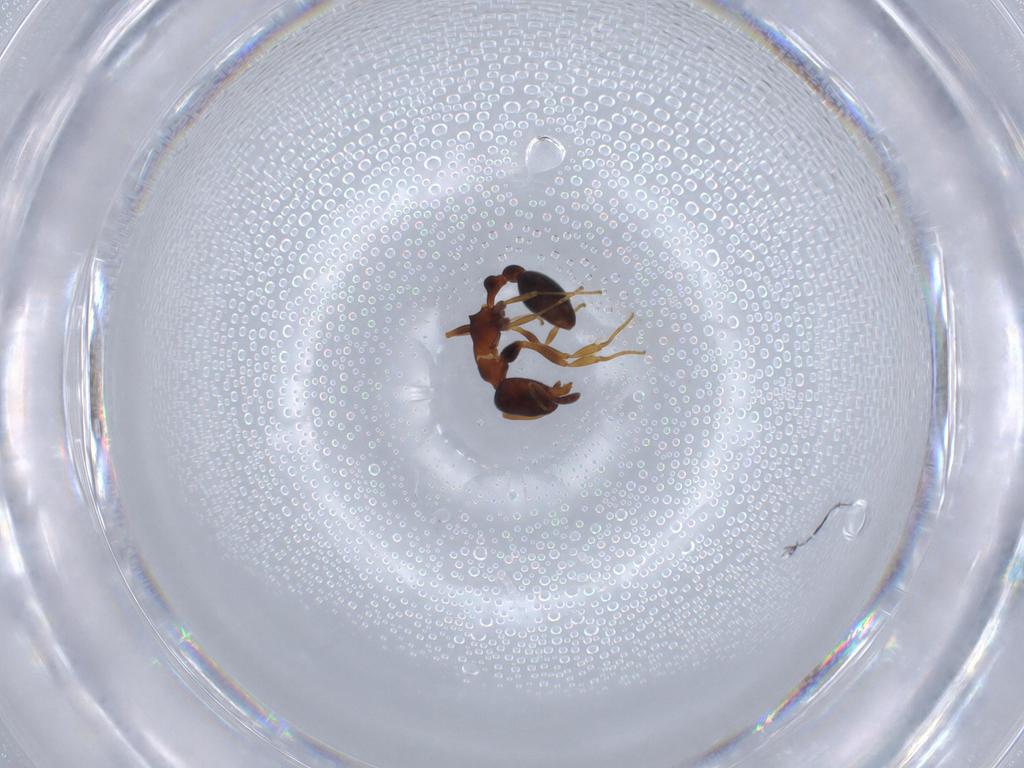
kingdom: Animalia
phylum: Arthropoda
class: Insecta
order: Hymenoptera
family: Formicidae
